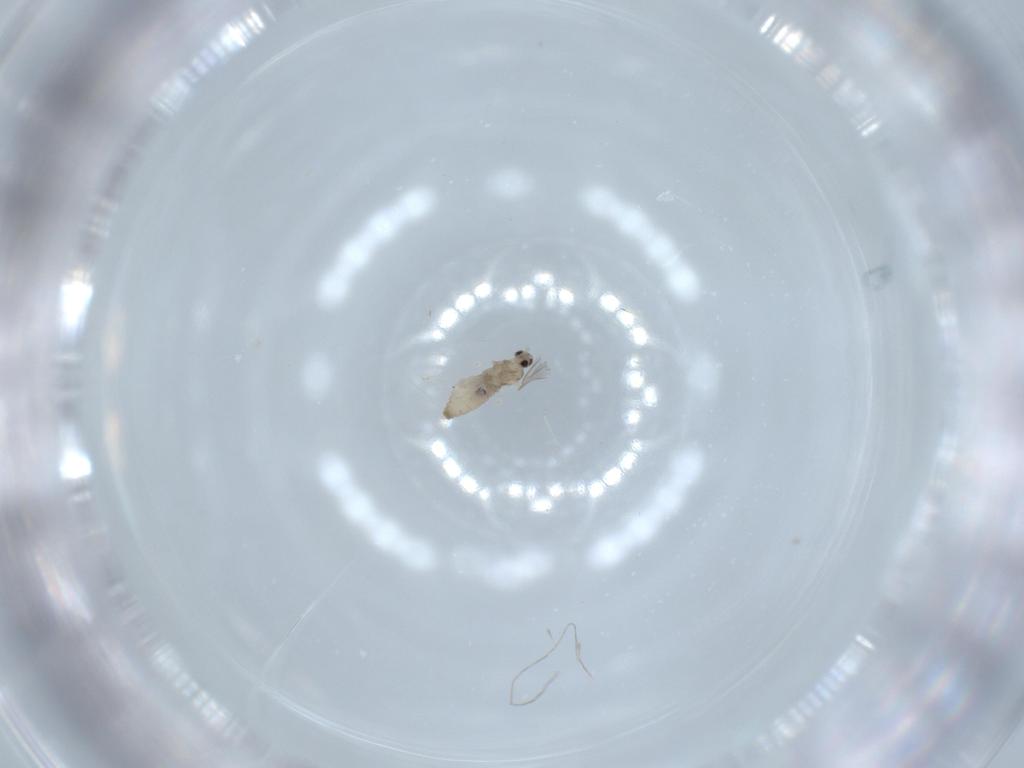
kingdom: Animalia
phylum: Arthropoda
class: Insecta
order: Diptera
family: Cecidomyiidae
